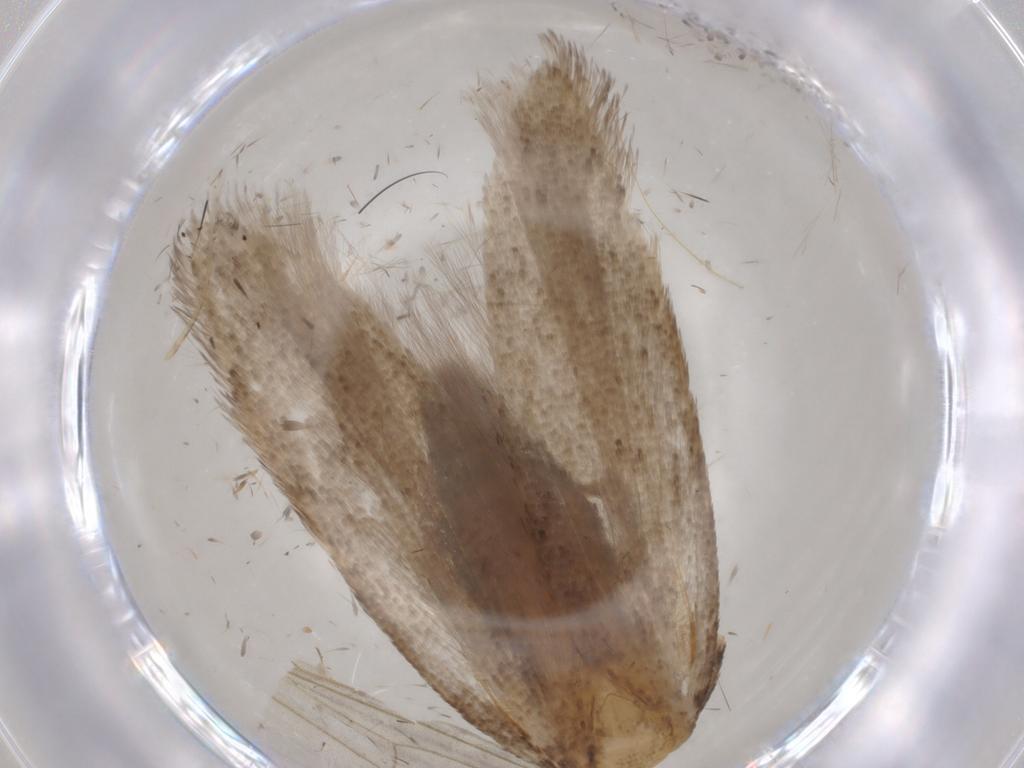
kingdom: Animalia
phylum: Arthropoda
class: Insecta
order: Lepidoptera
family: Gelechiidae
